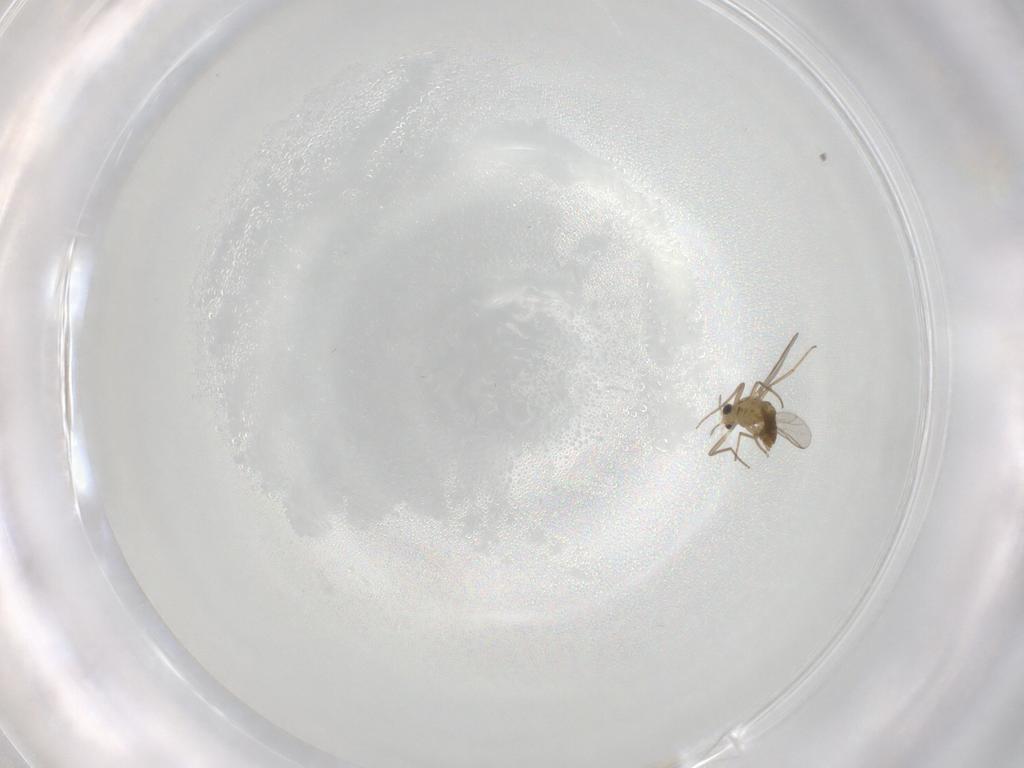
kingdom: Animalia
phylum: Arthropoda
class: Insecta
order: Diptera
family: Chironomidae
